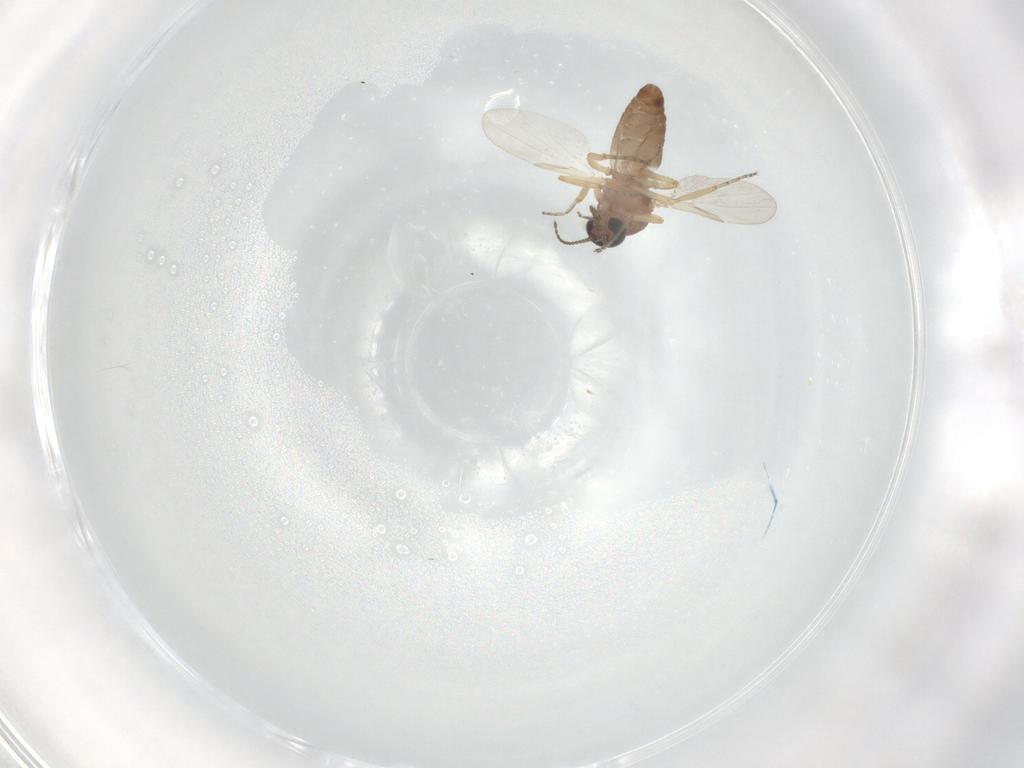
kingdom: Animalia
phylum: Arthropoda
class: Insecta
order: Diptera
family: Ceratopogonidae
